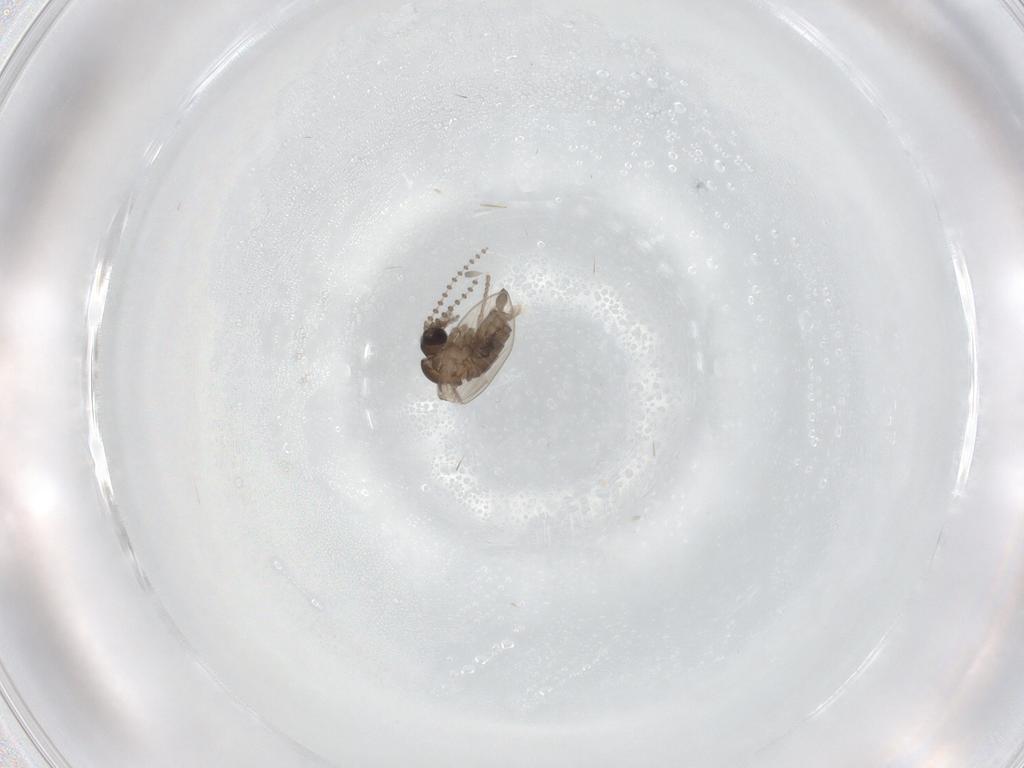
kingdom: Animalia
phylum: Arthropoda
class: Insecta
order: Diptera
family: Psychodidae
